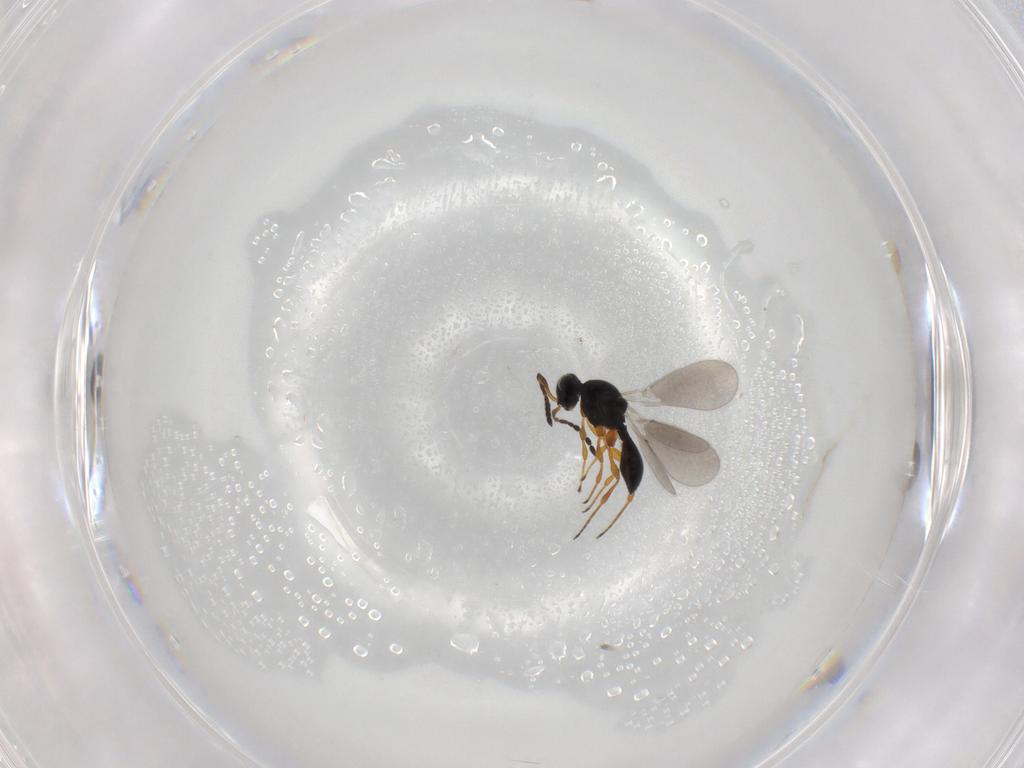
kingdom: Animalia
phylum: Arthropoda
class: Insecta
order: Hymenoptera
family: Platygastridae
